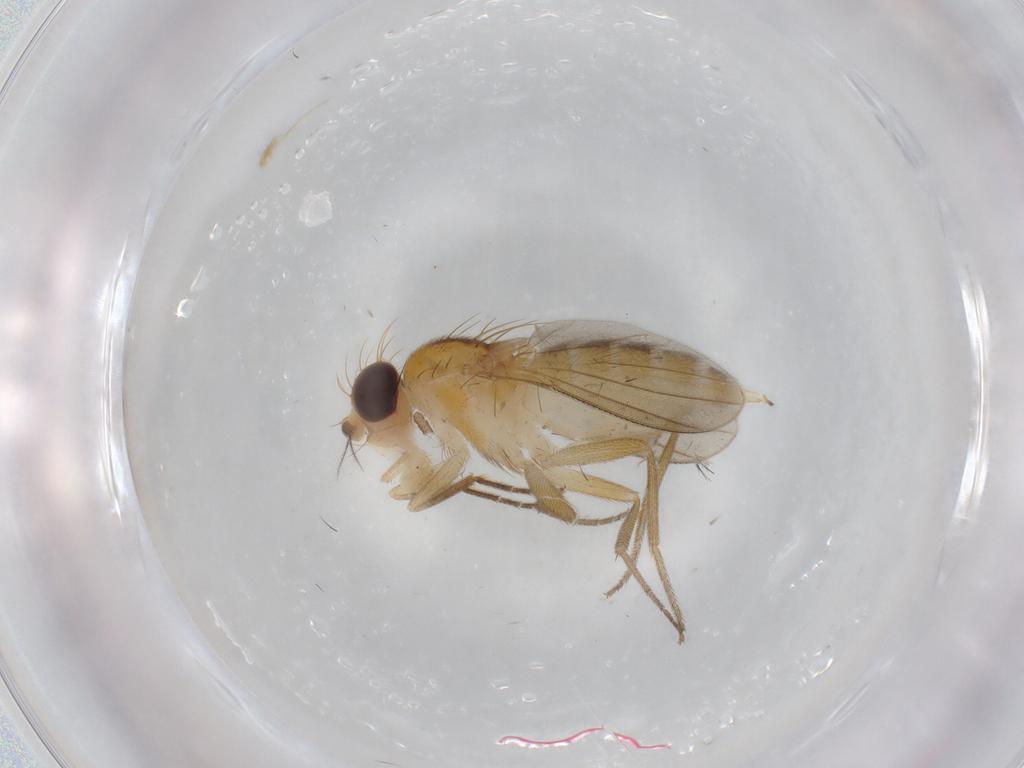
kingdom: Animalia
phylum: Arthropoda
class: Insecta
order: Diptera
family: Clusiidae
